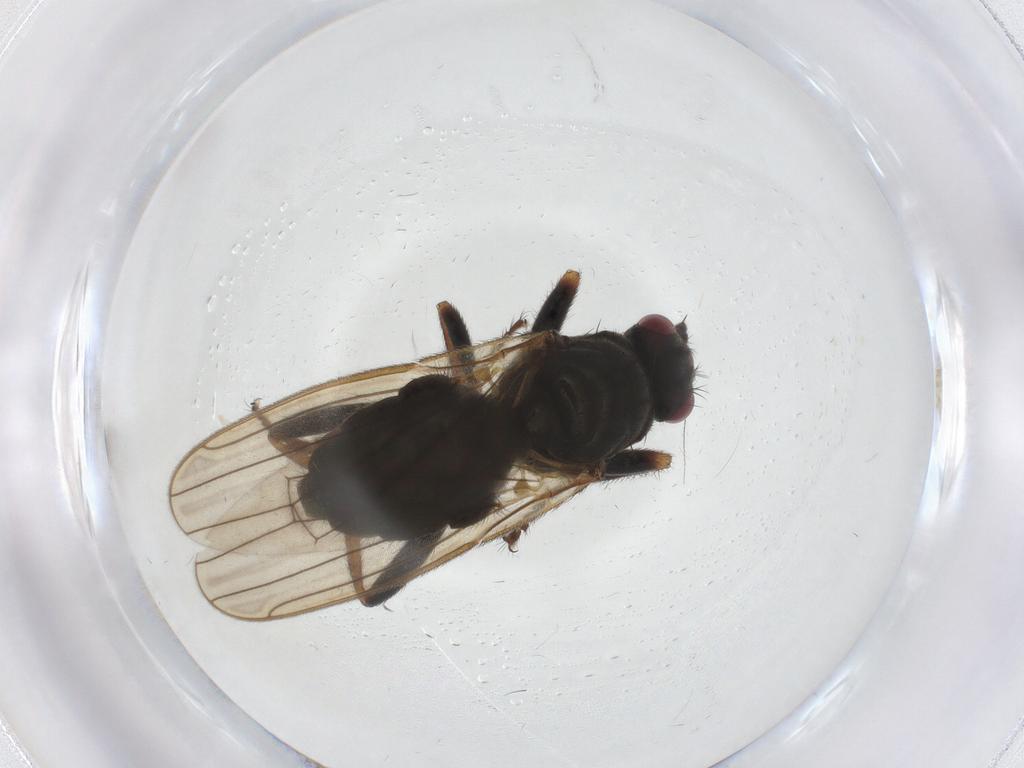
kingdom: Animalia
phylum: Arthropoda
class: Insecta
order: Diptera
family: Sphaeroceridae
